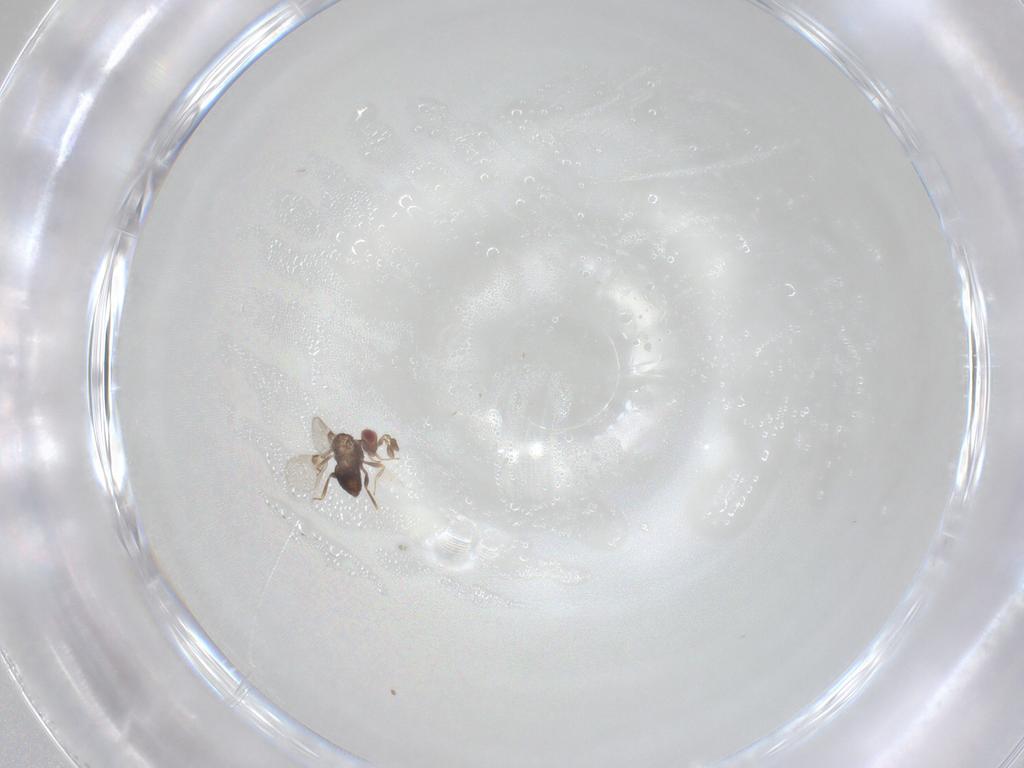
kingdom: Animalia
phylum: Arthropoda
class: Insecta
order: Hymenoptera
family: Trichogrammatidae
